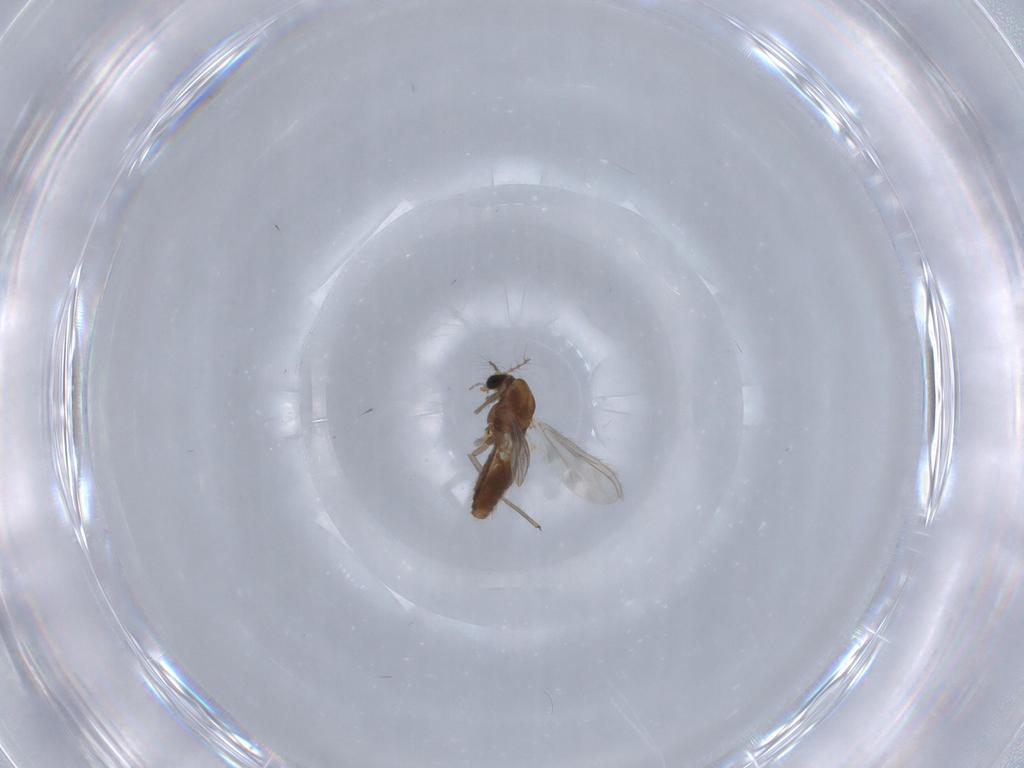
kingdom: Animalia
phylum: Arthropoda
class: Insecta
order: Diptera
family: Chironomidae
